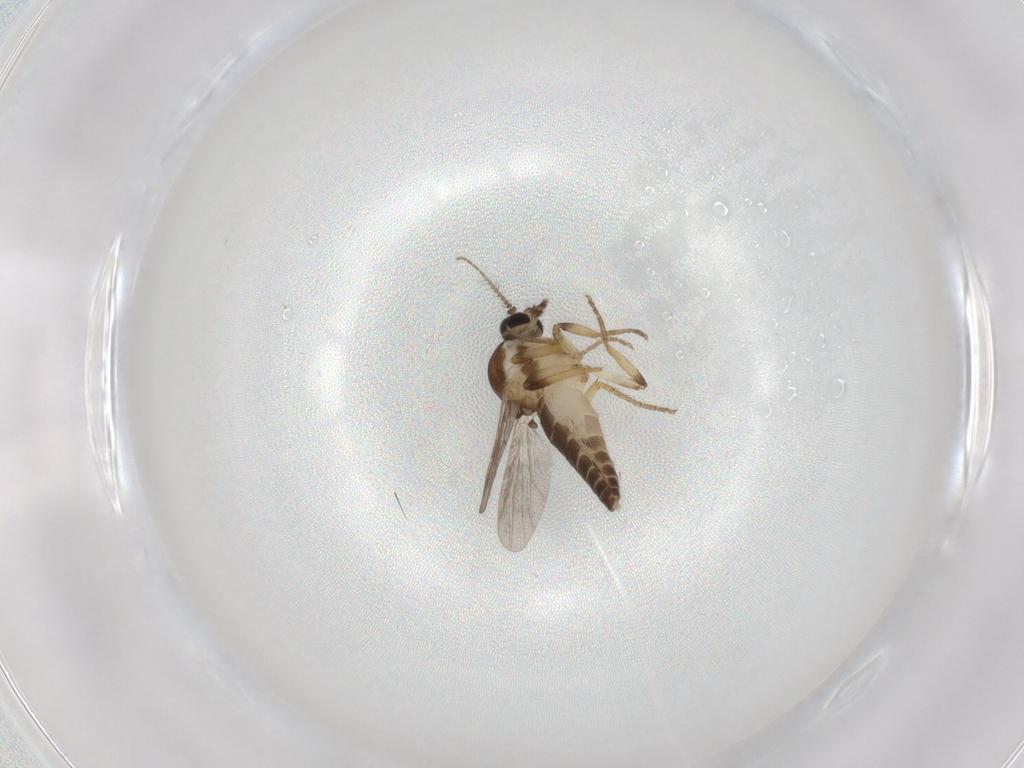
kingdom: Animalia
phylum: Arthropoda
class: Insecta
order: Diptera
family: Ceratopogonidae
